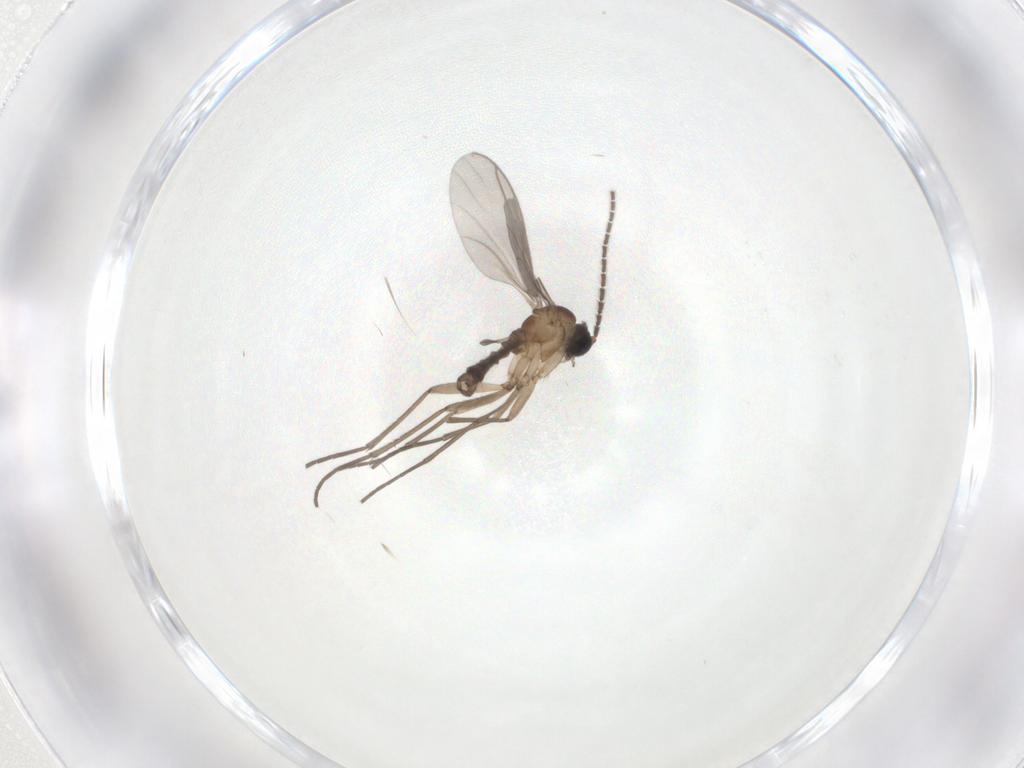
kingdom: Animalia
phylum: Arthropoda
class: Insecta
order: Diptera
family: Sciaridae
